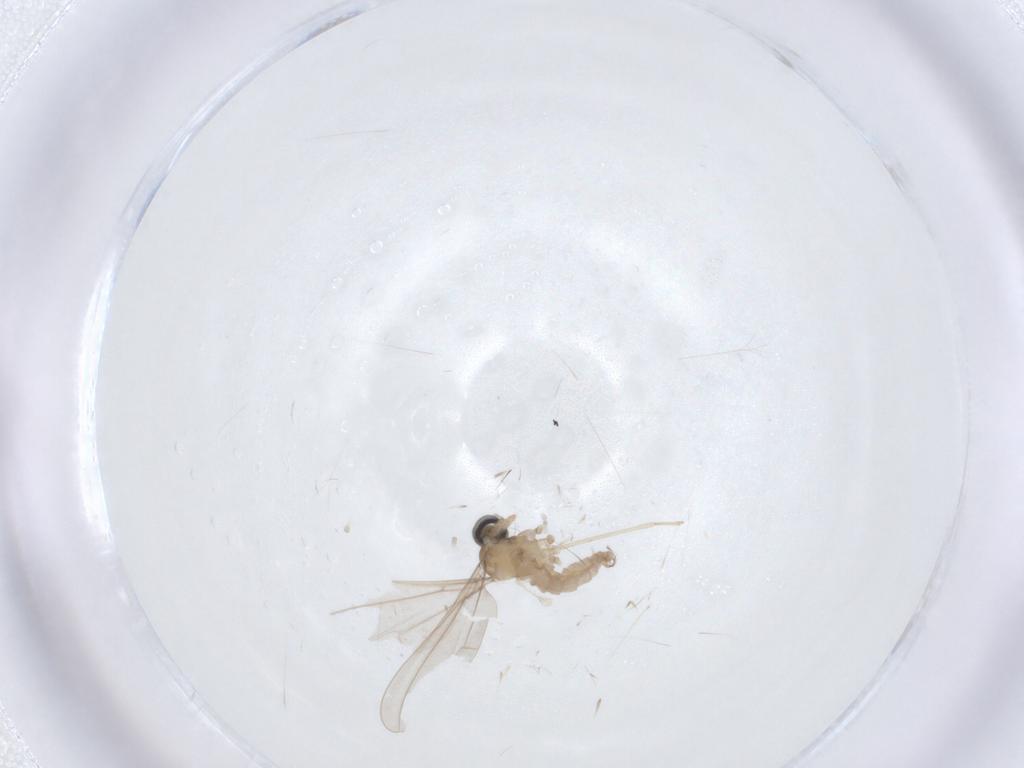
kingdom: Animalia
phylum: Arthropoda
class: Insecta
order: Diptera
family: Cecidomyiidae
